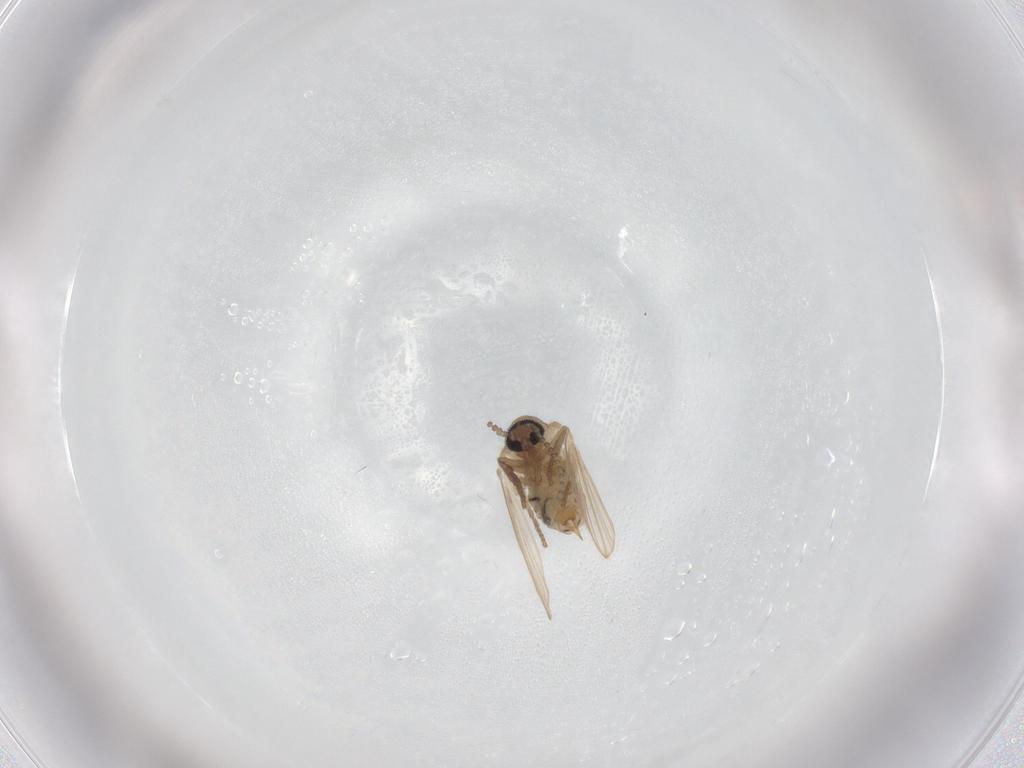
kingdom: Animalia
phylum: Arthropoda
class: Insecta
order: Diptera
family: Psychodidae
